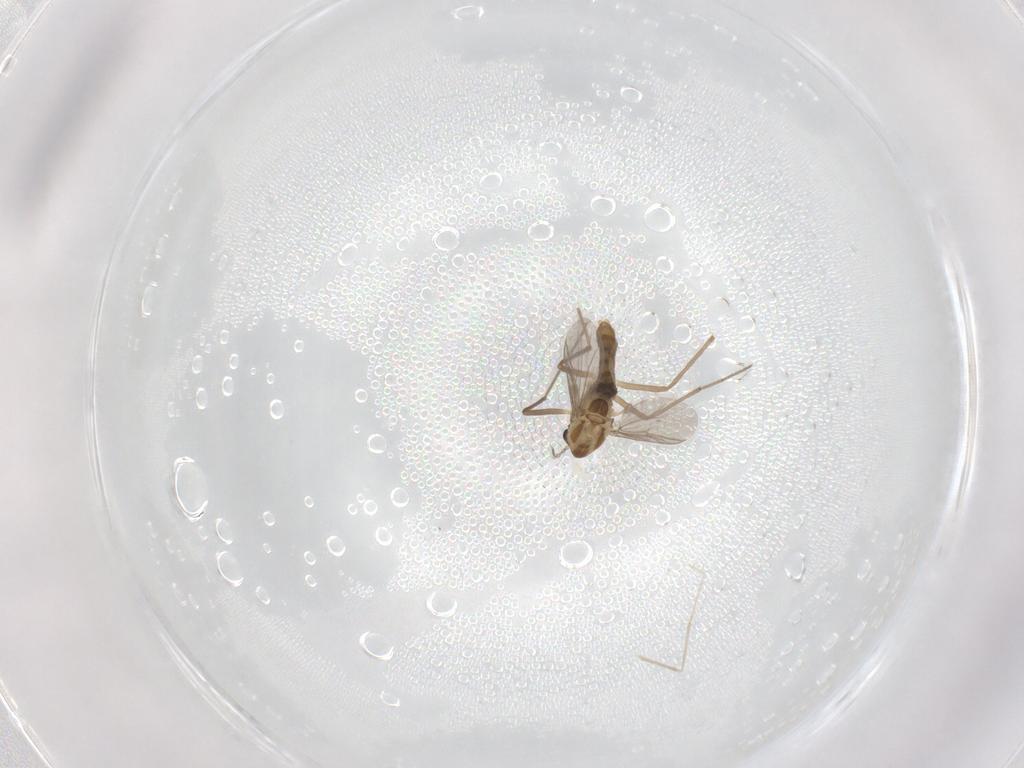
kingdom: Animalia
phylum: Arthropoda
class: Insecta
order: Diptera
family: Chironomidae
